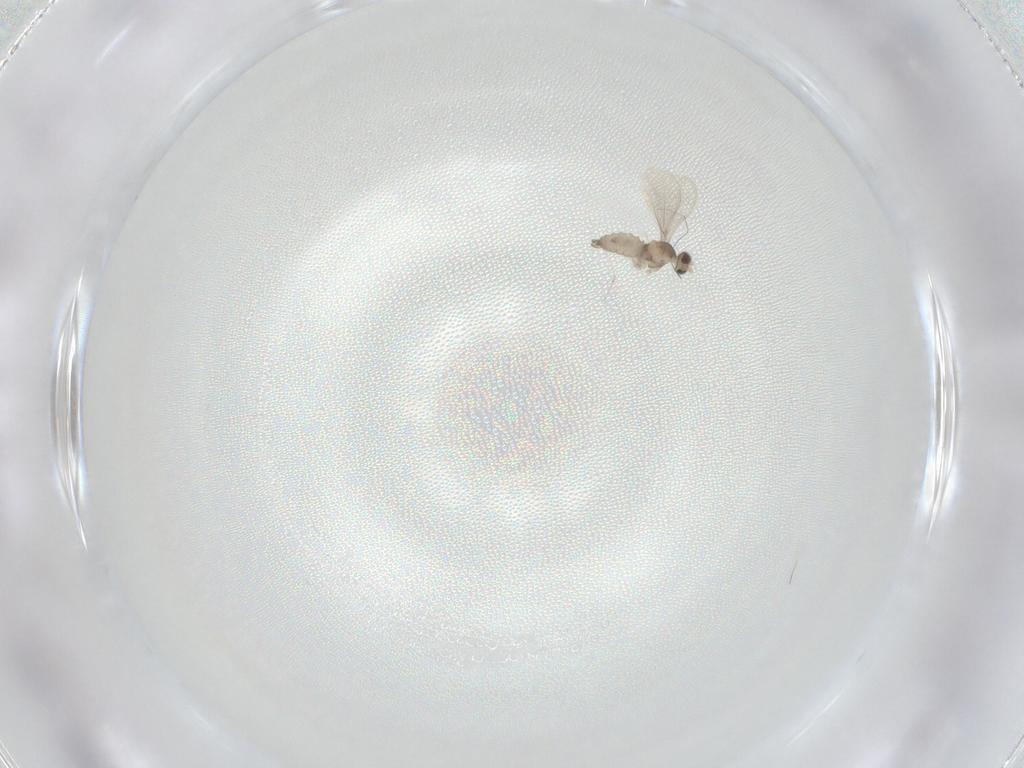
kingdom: Animalia
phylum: Arthropoda
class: Insecta
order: Diptera
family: Cecidomyiidae
